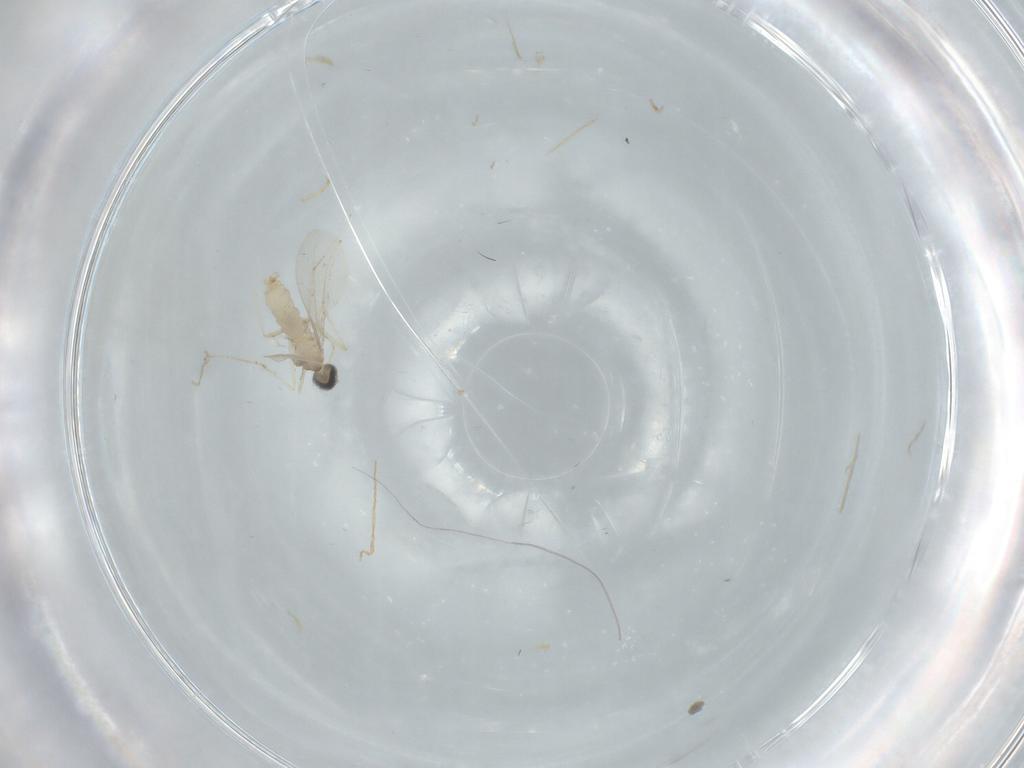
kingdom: Animalia
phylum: Arthropoda
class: Insecta
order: Diptera
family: Cecidomyiidae
